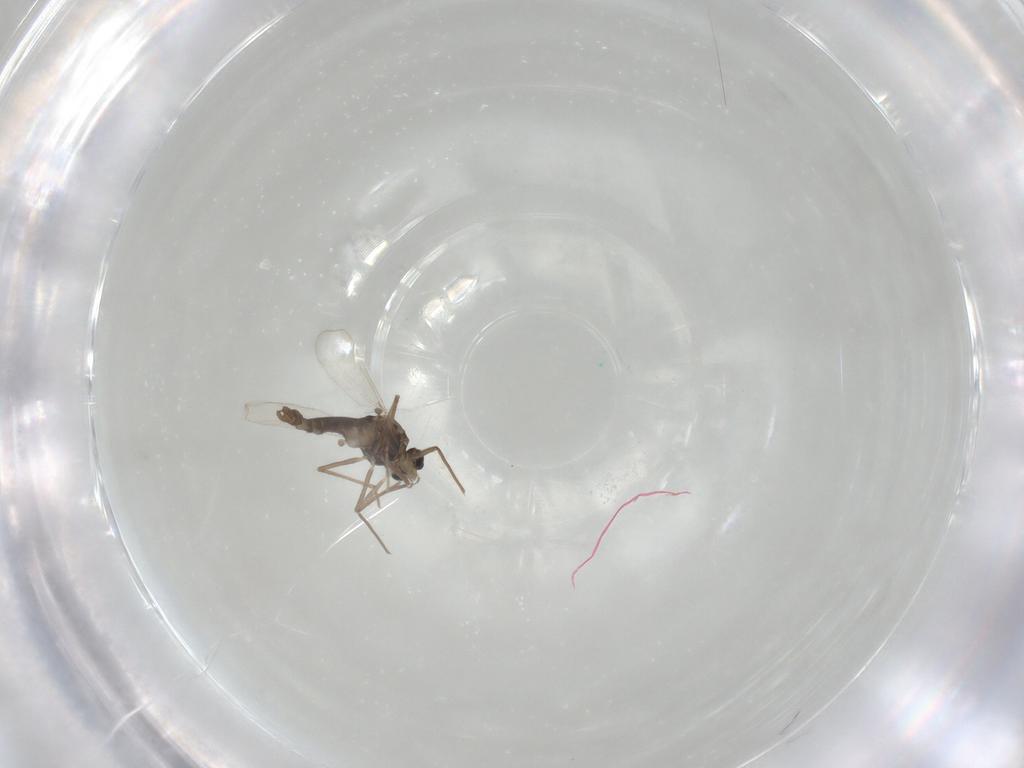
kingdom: Animalia
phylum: Arthropoda
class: Insecta
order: Diptera
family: Chironomidae
